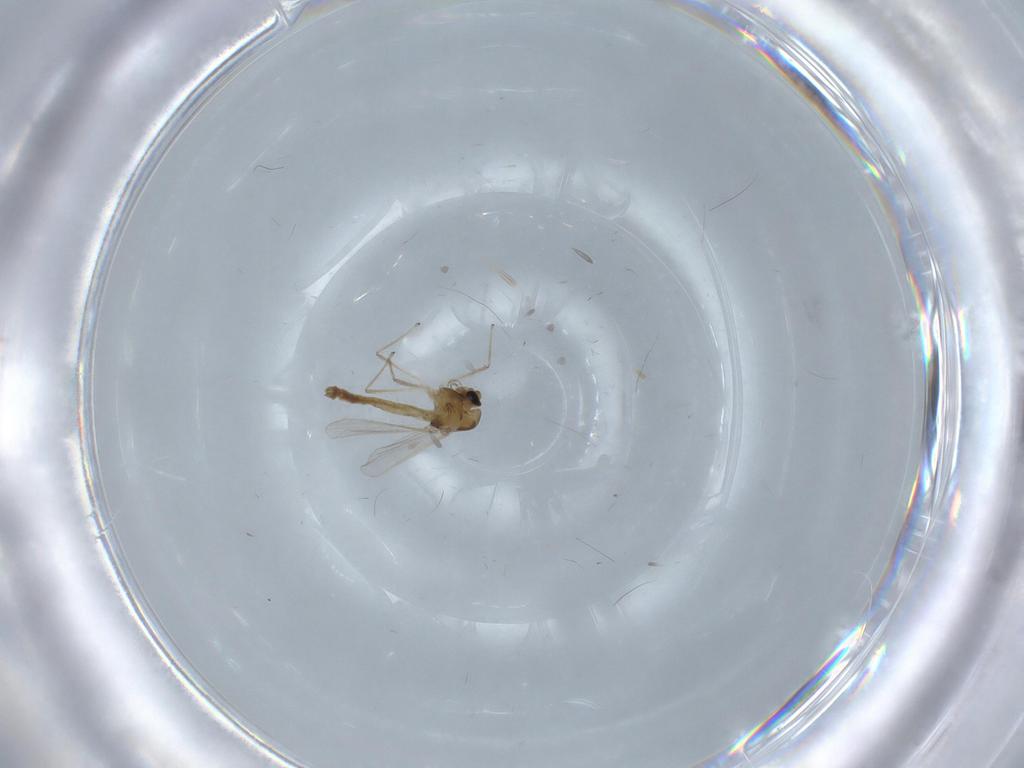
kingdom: Animalia
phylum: Arthropoda
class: Insecta
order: Diptera
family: Chironomidae
